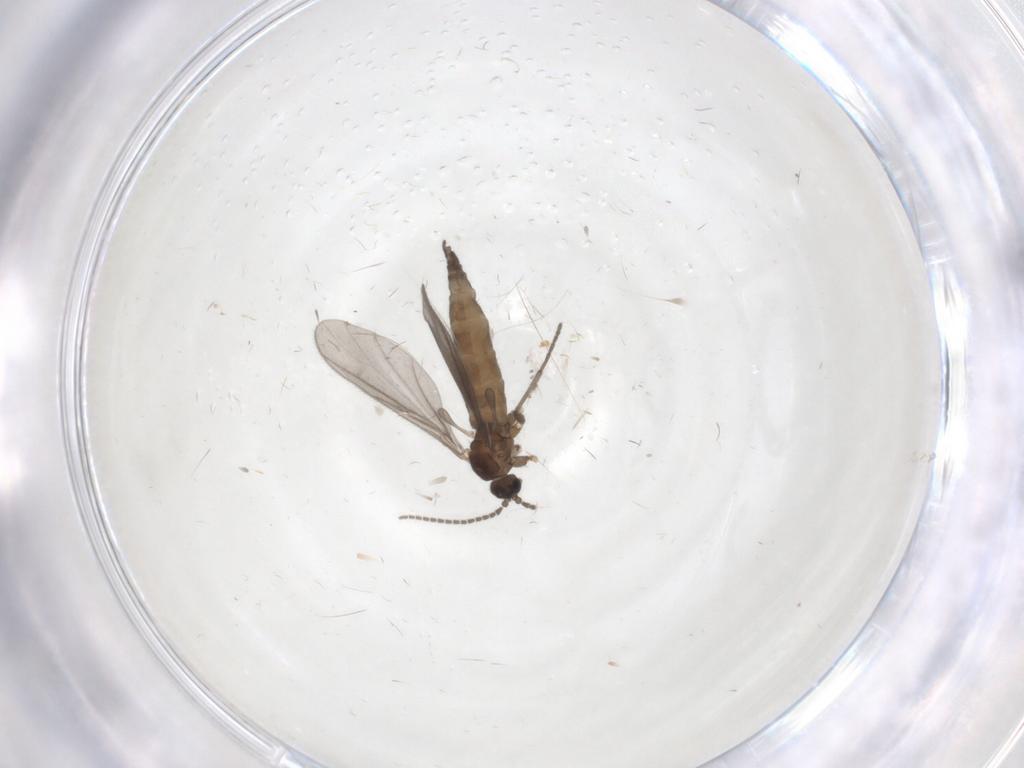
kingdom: Animalia
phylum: Arthropoda
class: Insecta
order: Diptera
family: Sciaridae
